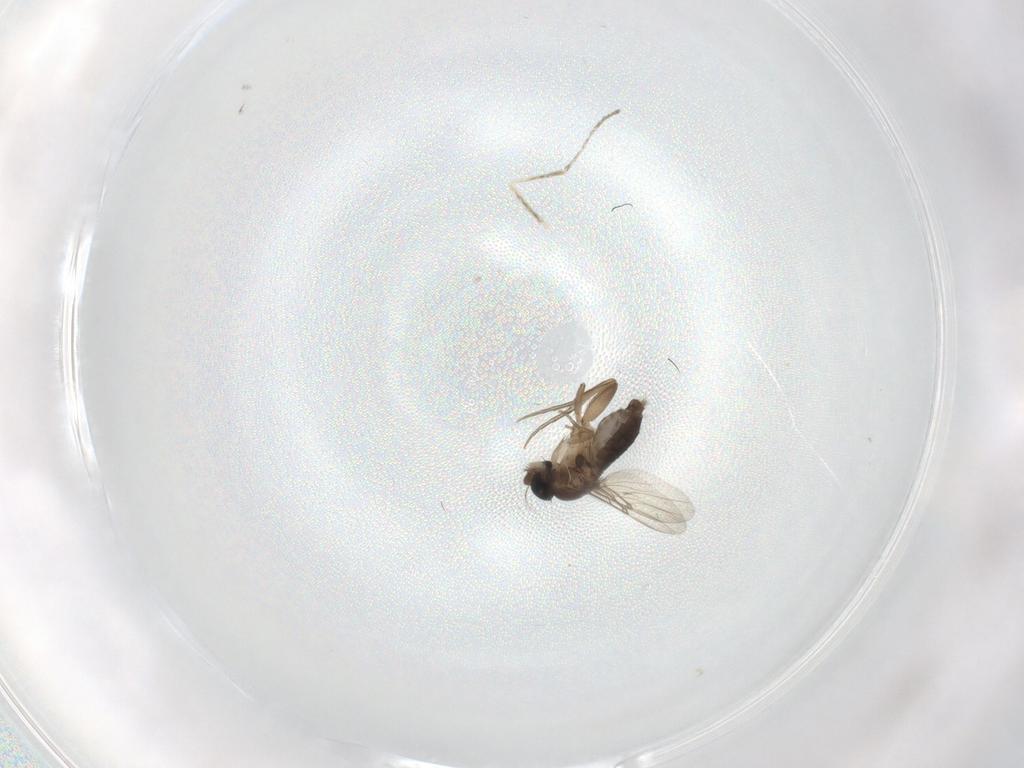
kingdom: Animalia
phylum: Arthropoda
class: Insecta
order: Diptera
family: Phoridae
